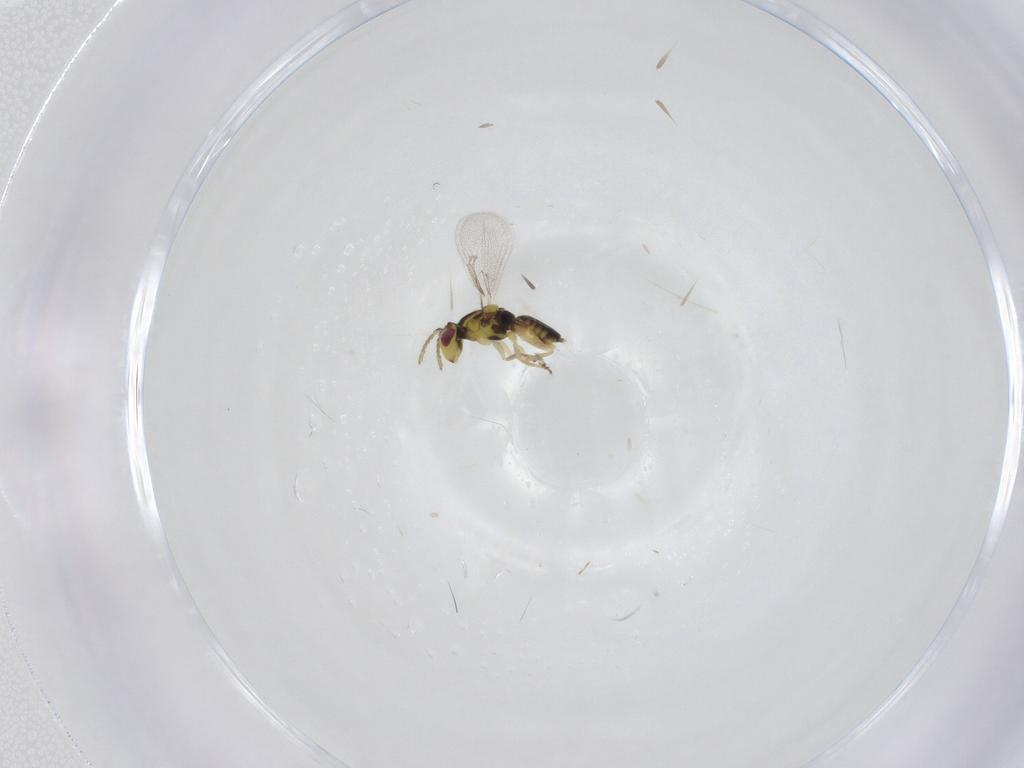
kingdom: Animalia
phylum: Arthropoda
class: Insecta
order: Hymenoptera
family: Eulophidae
